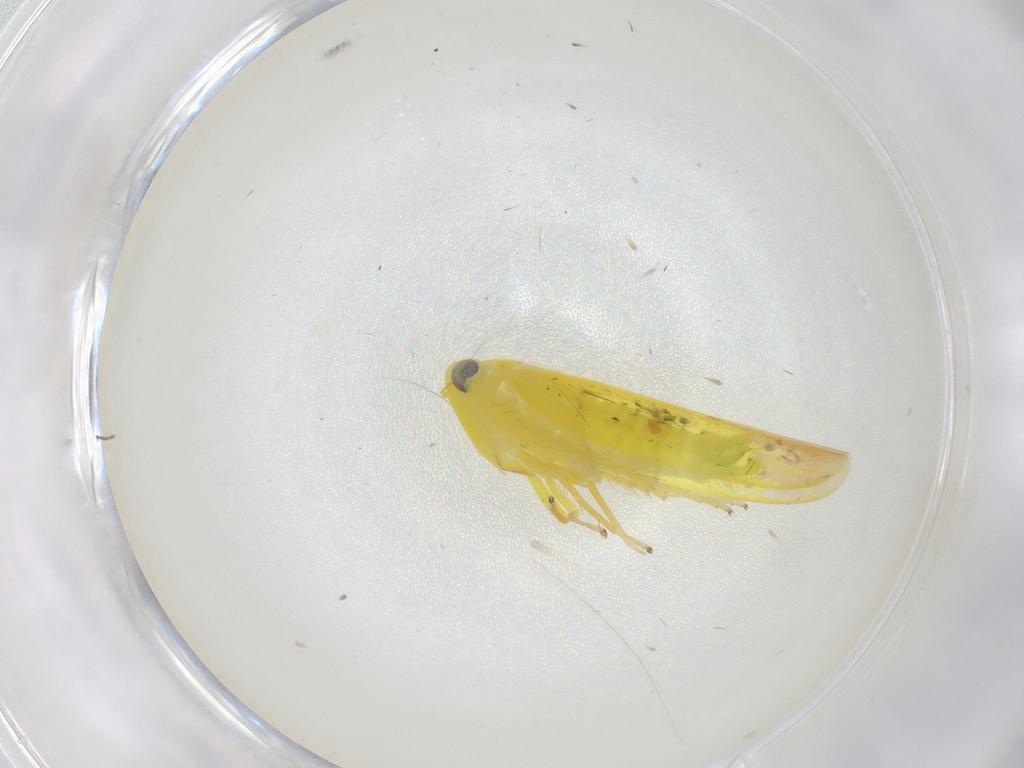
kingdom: Animalia
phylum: Arthropoda
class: Insecta
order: Hemiptera
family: Cicadellidae
